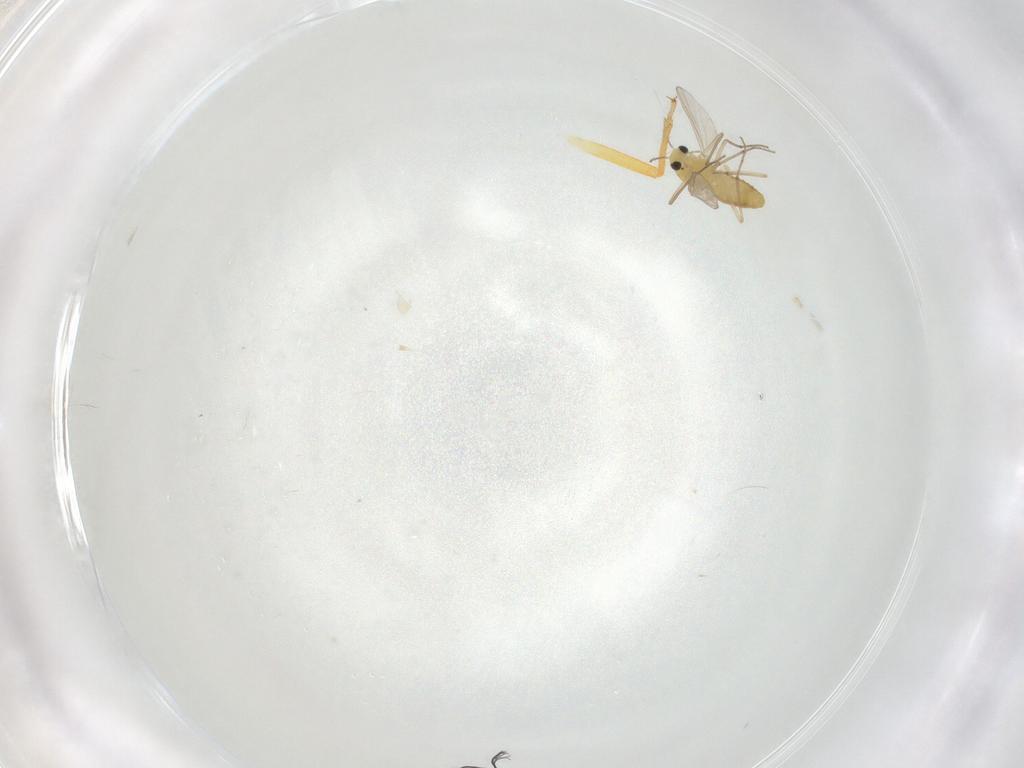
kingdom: Animalia
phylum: Arthropoda
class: Insecta
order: Diptera
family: Chironomidae
